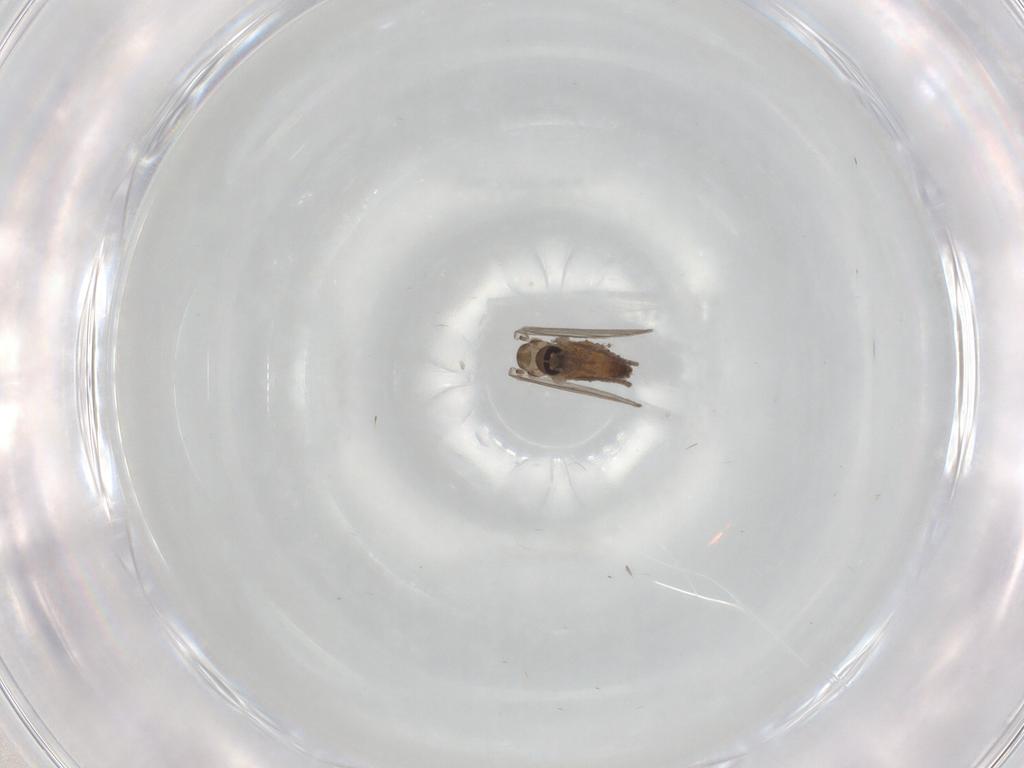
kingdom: Animalia
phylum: Arthropoda
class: Insecta
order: Diptera
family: Psychodidae
